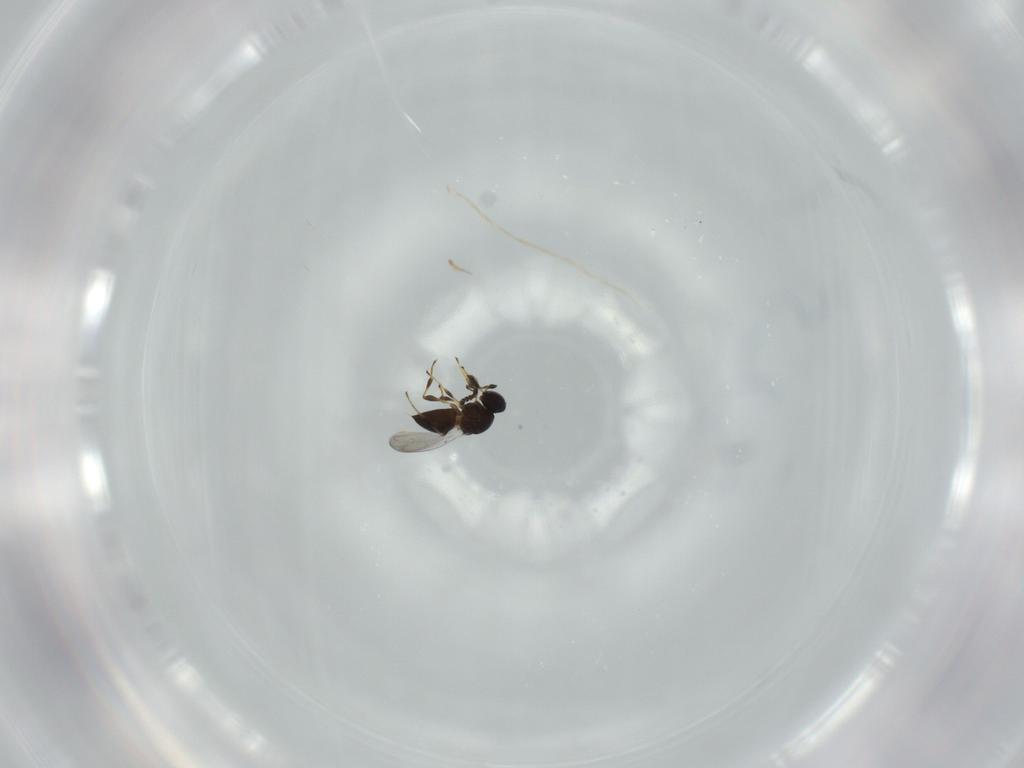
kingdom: Animalia
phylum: Arthropoda
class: Insecta
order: Hymenoptera
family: Platygastridae
